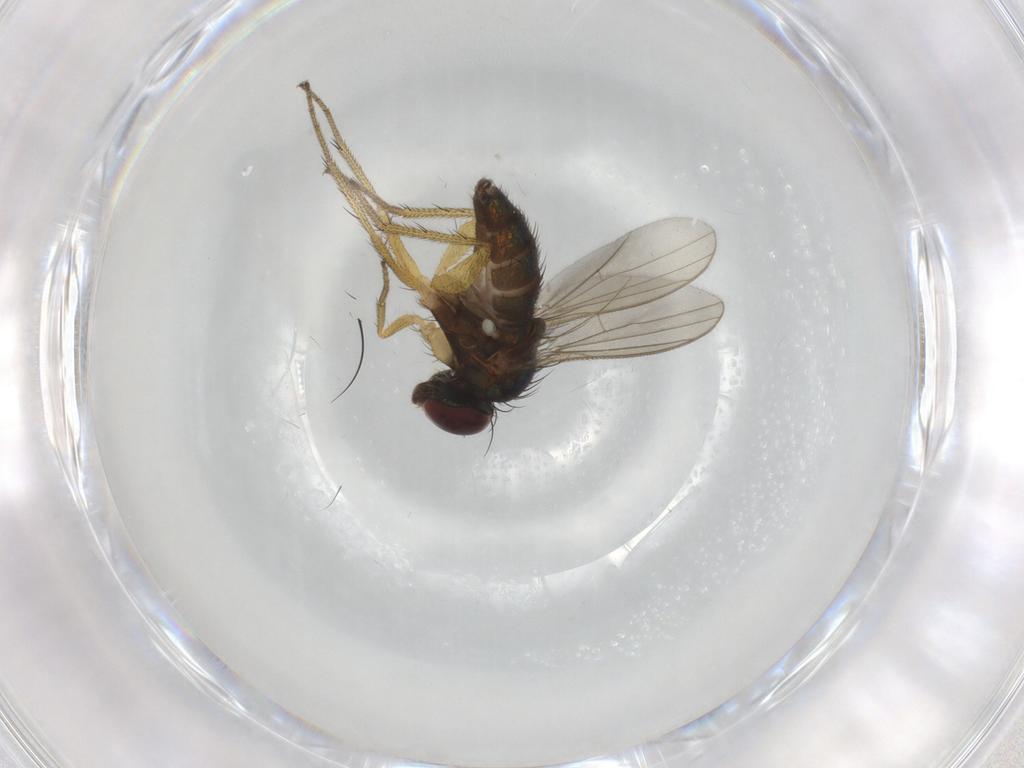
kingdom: Animalia
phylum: Arthropoda
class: Insecta
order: Diptera
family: Dolichopodidae
